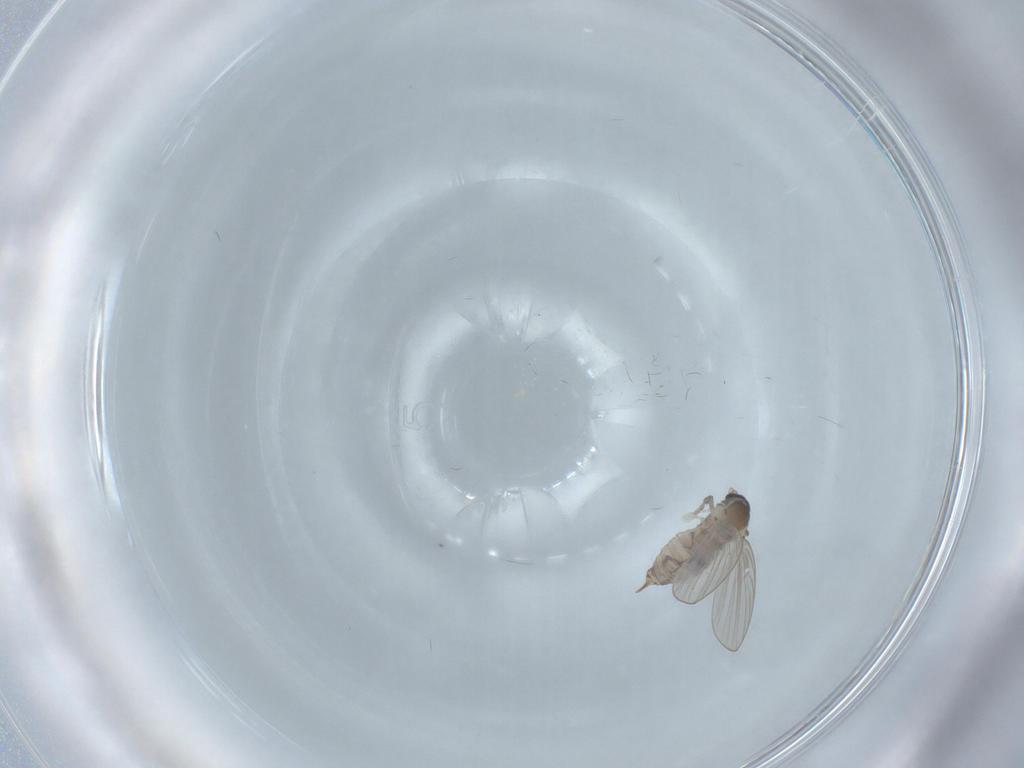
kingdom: Animalia
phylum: Arthropoda
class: Insecta
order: Diptera
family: Psychodidae
